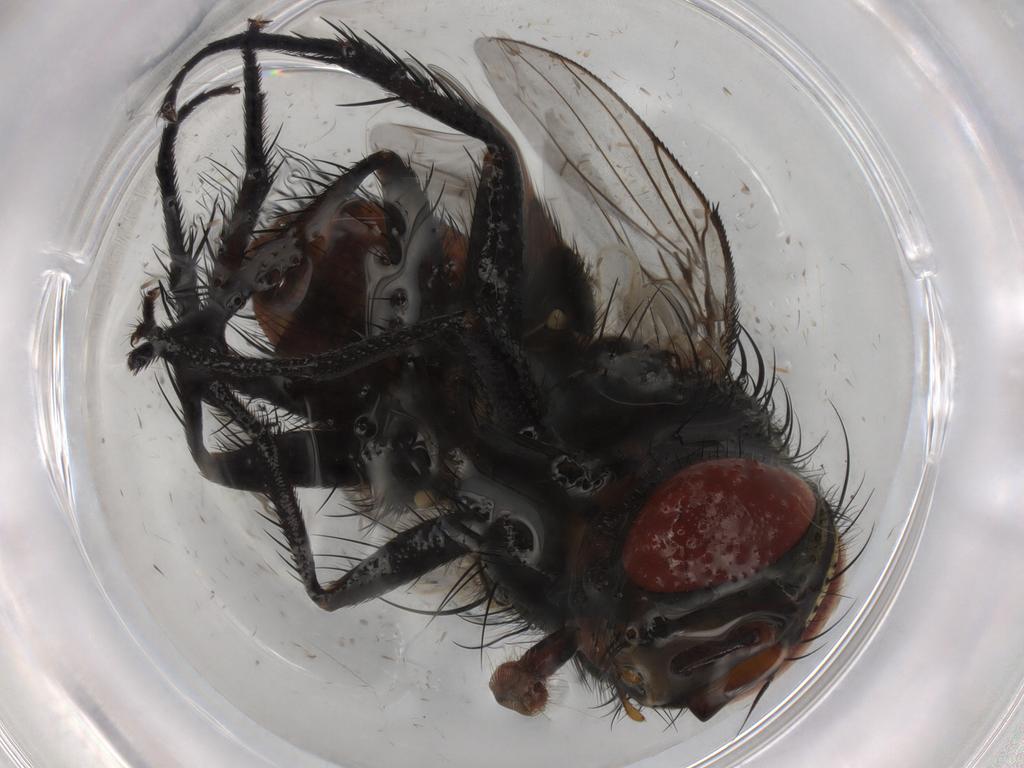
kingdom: Animalia
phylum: Arthropoda
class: Insecta
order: Diptera
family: Tachinidae
